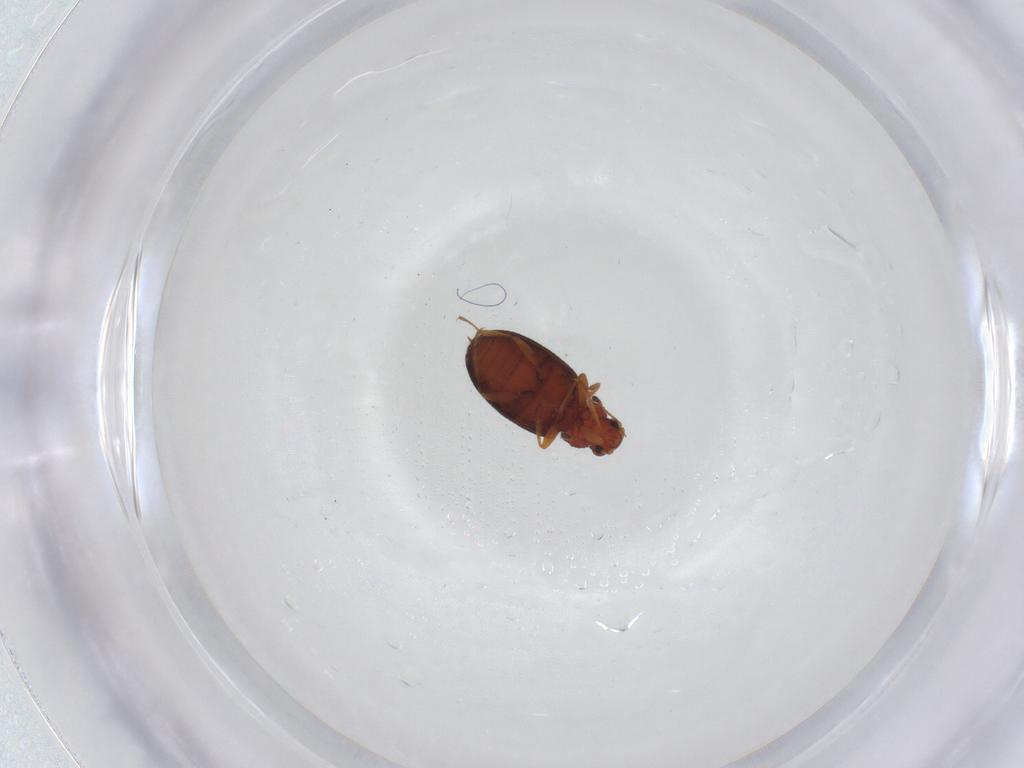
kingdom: Animalia
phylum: Arthropoda
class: Insecta
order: Coleoptera
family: Latridiidae
